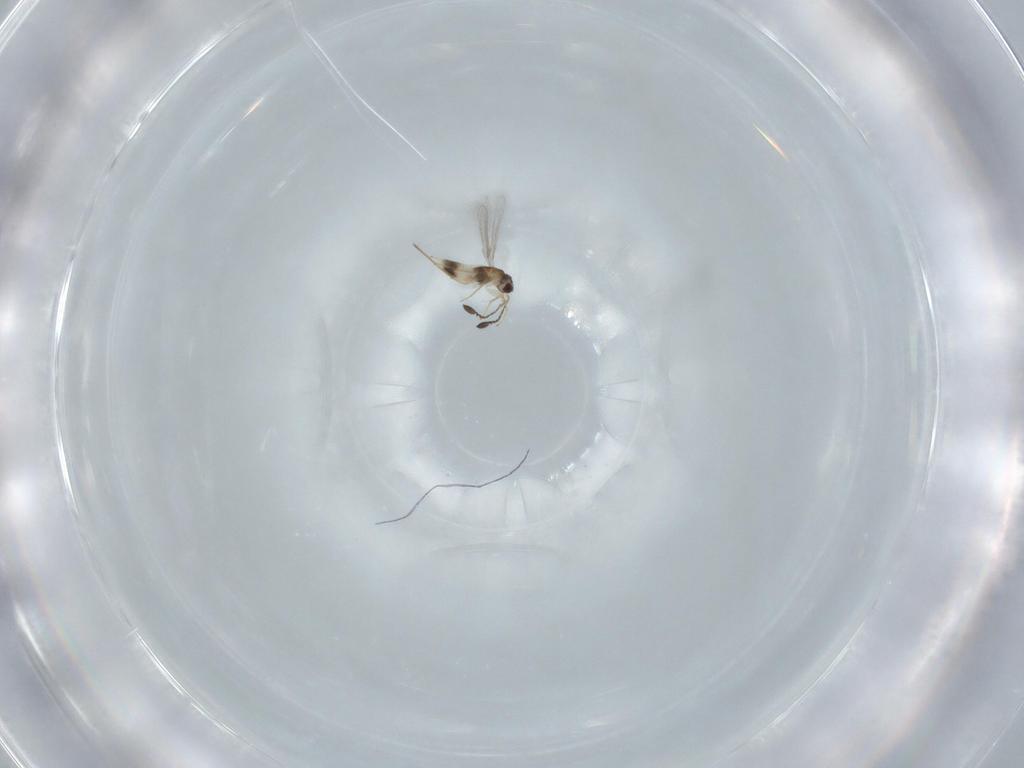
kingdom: Animalia
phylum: Arthropoda
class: Insecta
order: Hymenoptera
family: Mymaridae
